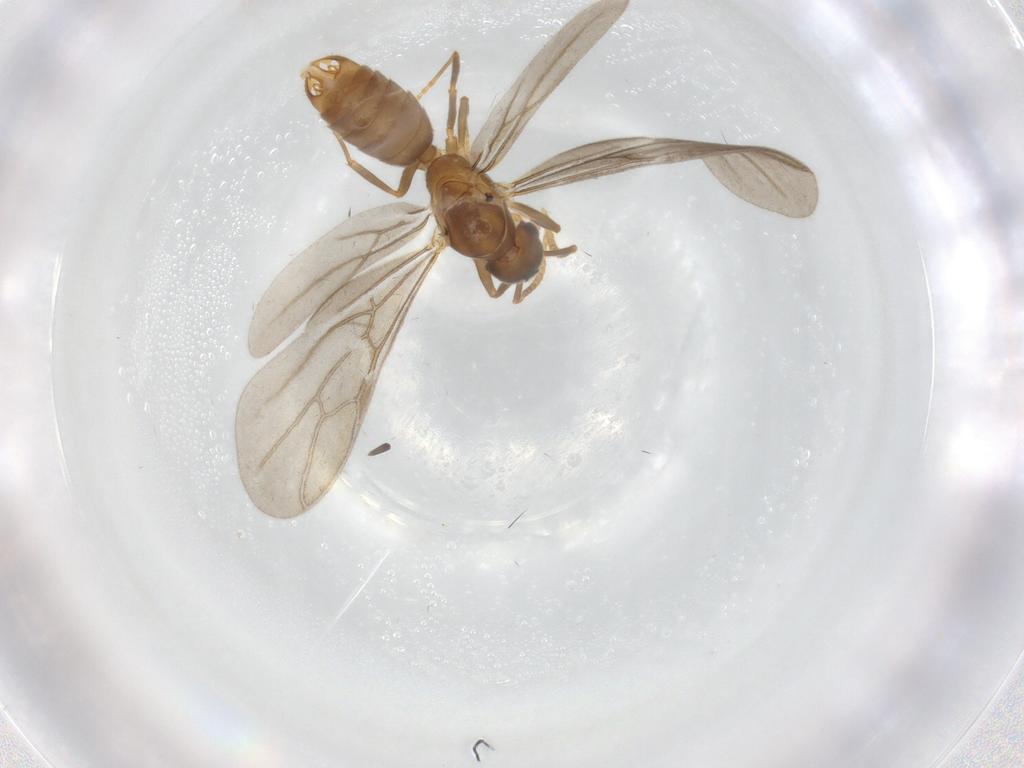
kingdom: Animalia
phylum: Arthropoda
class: Insecta
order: Hymenoptera
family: Formicidae
